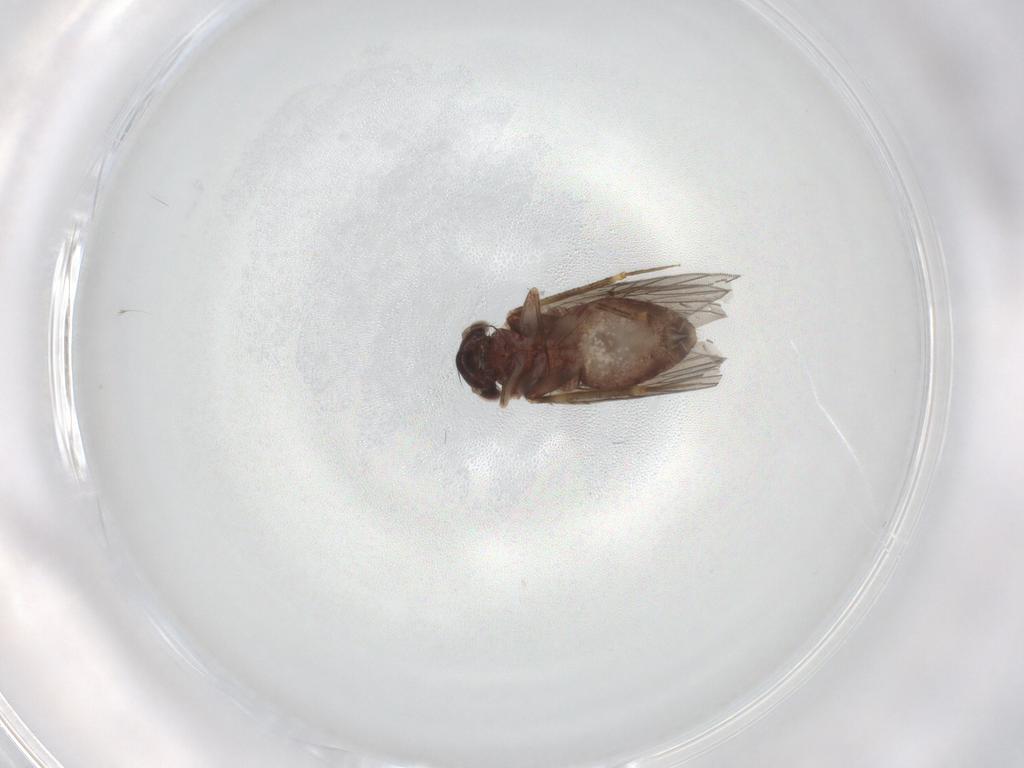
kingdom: Animalia
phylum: Arthropoda
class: Insecta
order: Psocodea
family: Lepidopsocidae
